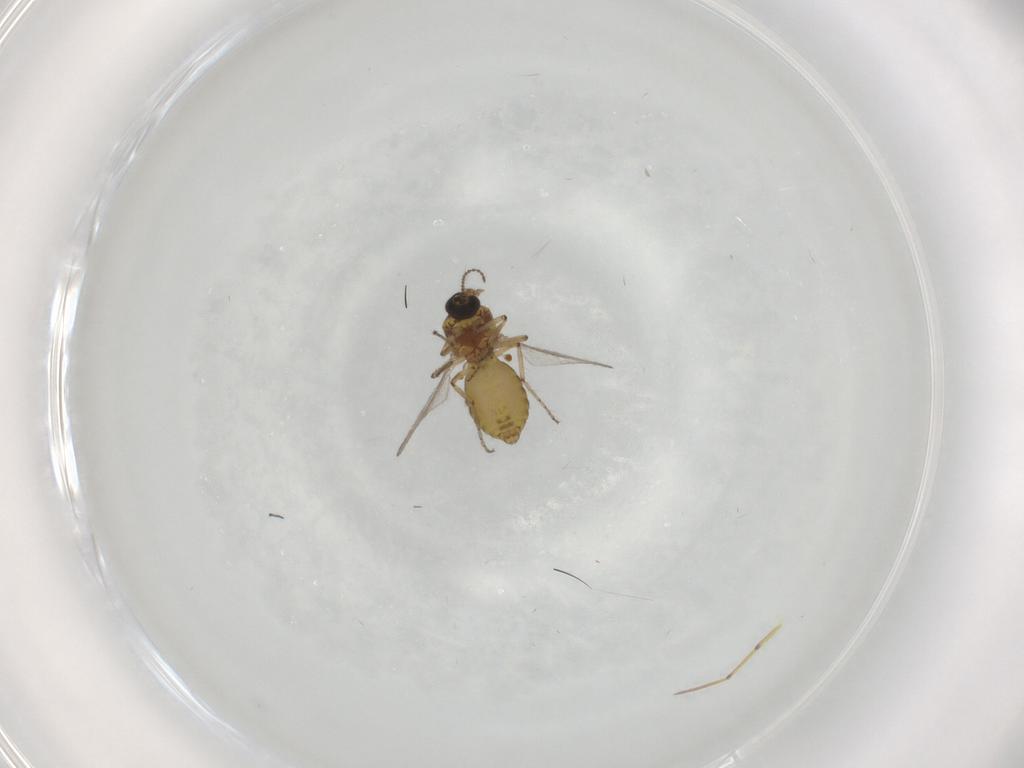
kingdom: Animalia
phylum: Arthropoda
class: Insecta
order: Diptera
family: Ceratopogonidae
